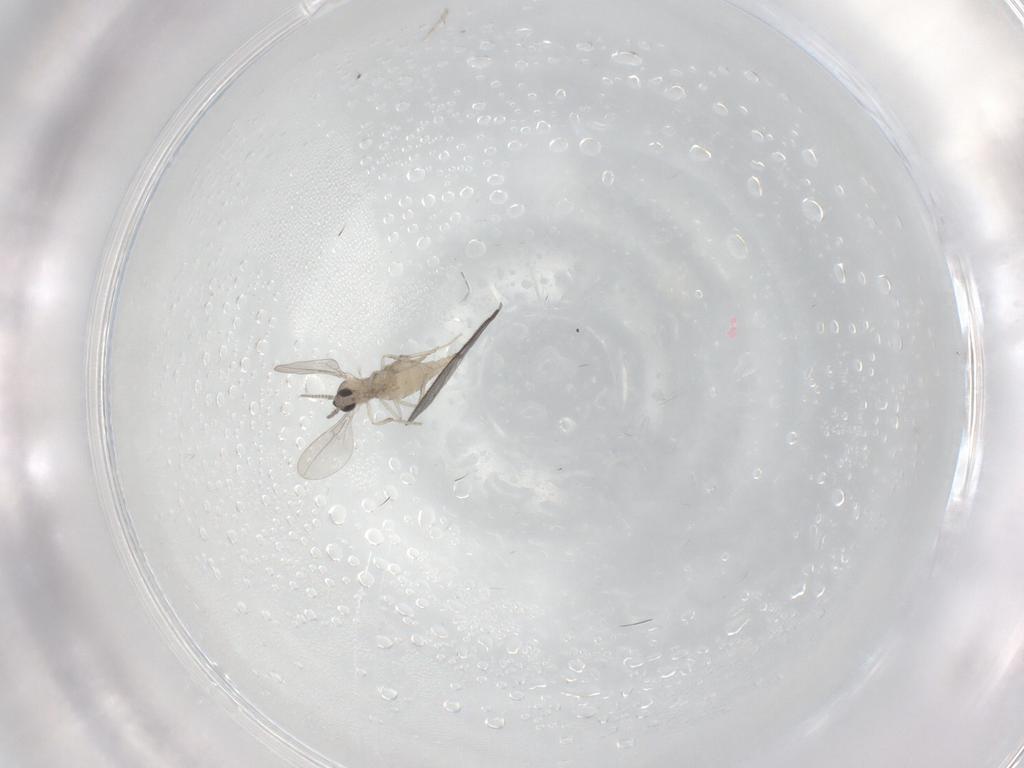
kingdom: Animalia
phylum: Arthropoda
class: Insecta
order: Diptera
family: Cecidomyiidae
